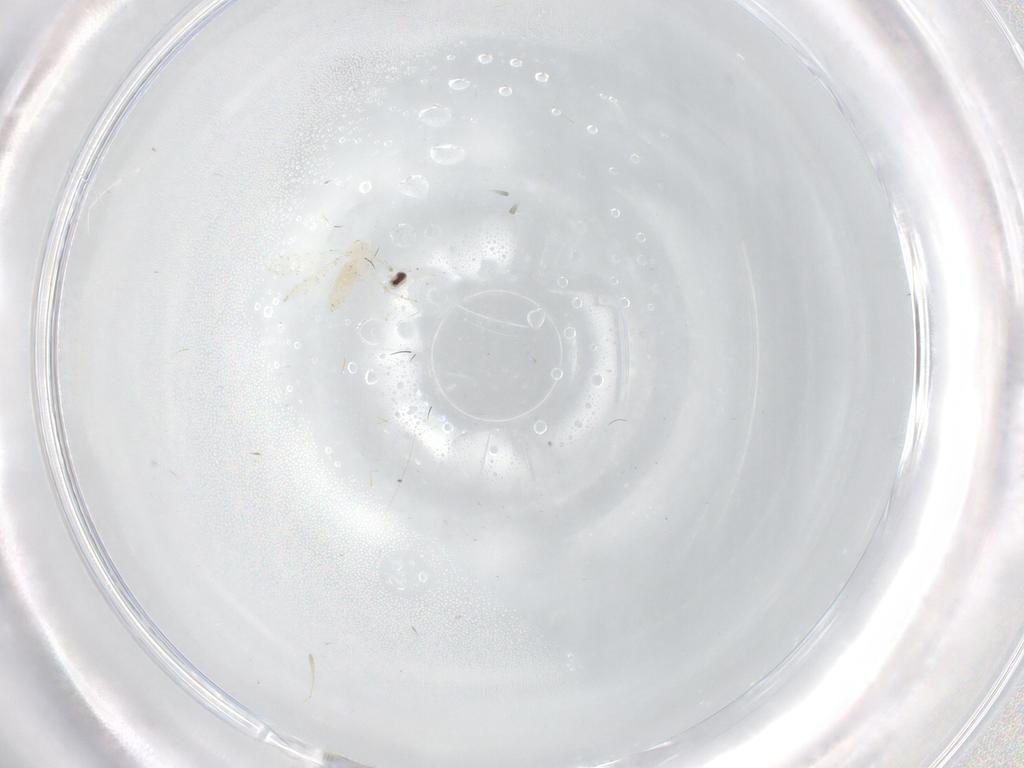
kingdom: Animalia
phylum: Arthropoda
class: Insecta
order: Diptera
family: Cecidomyiidae
